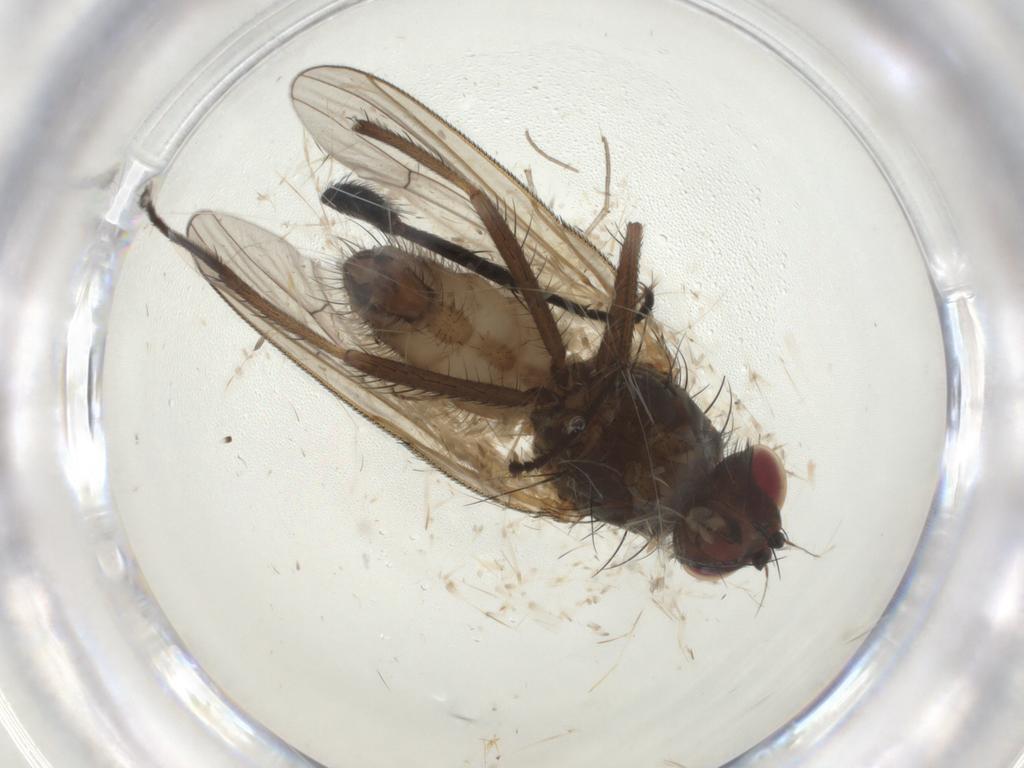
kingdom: Animalia
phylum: Arthropoda
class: Insecta
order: Diptera
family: Anthomyiidae
